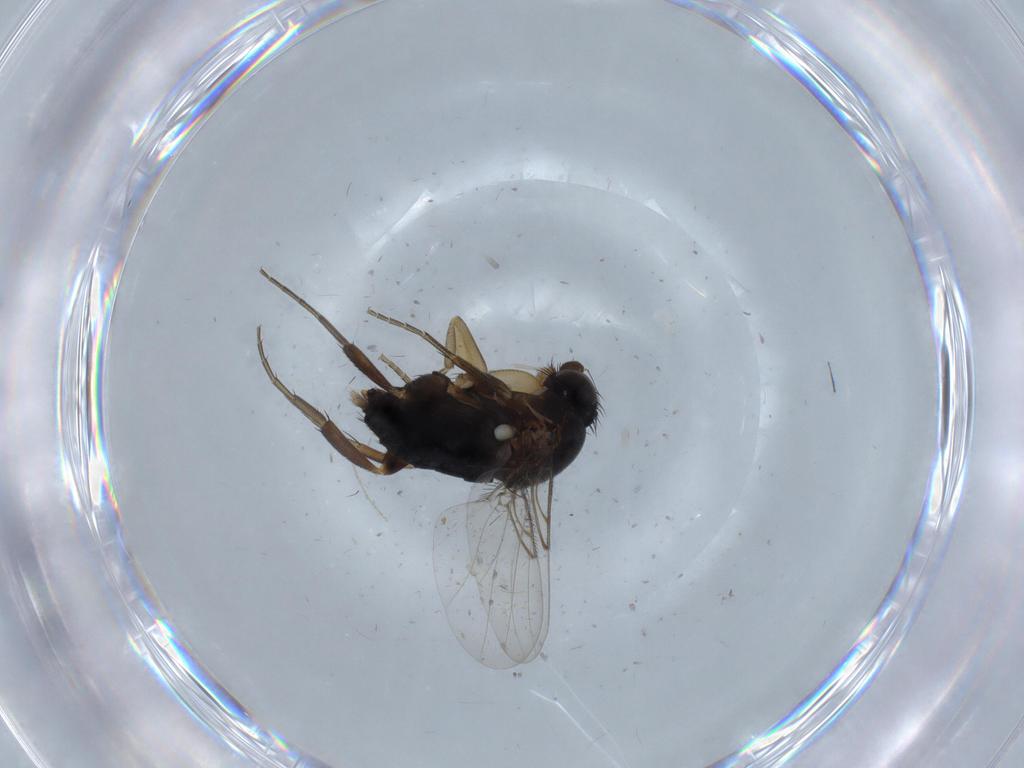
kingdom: Animalia
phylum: Arthropoda
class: Insecta
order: Diptera
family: Phoridae
